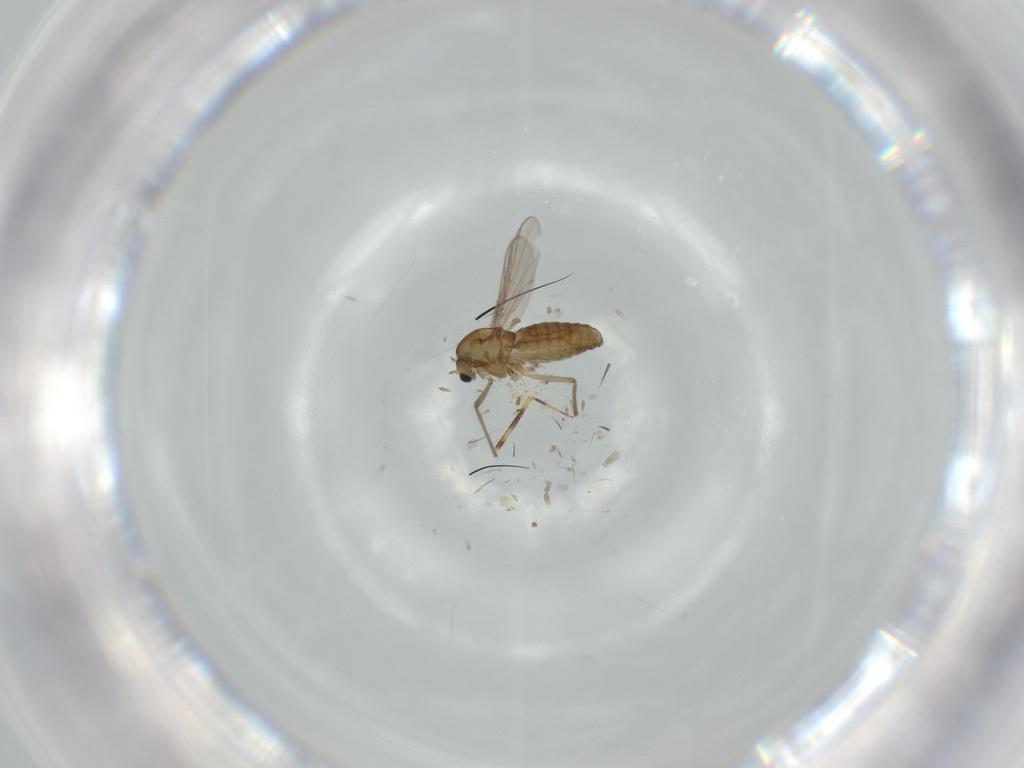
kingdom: Animalia
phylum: Arthropoda
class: Insecta
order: Diptera
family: Chironomidae
